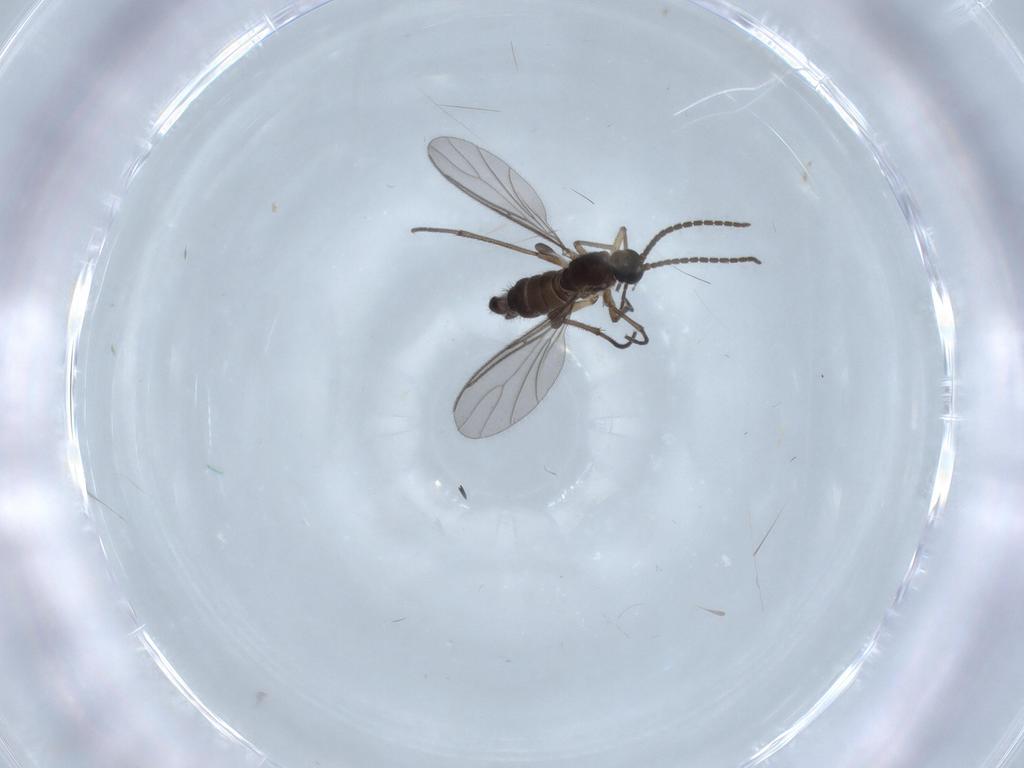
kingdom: Animalia
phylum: Arthropoda
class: Insecta
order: Diptera
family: Sciaridae
